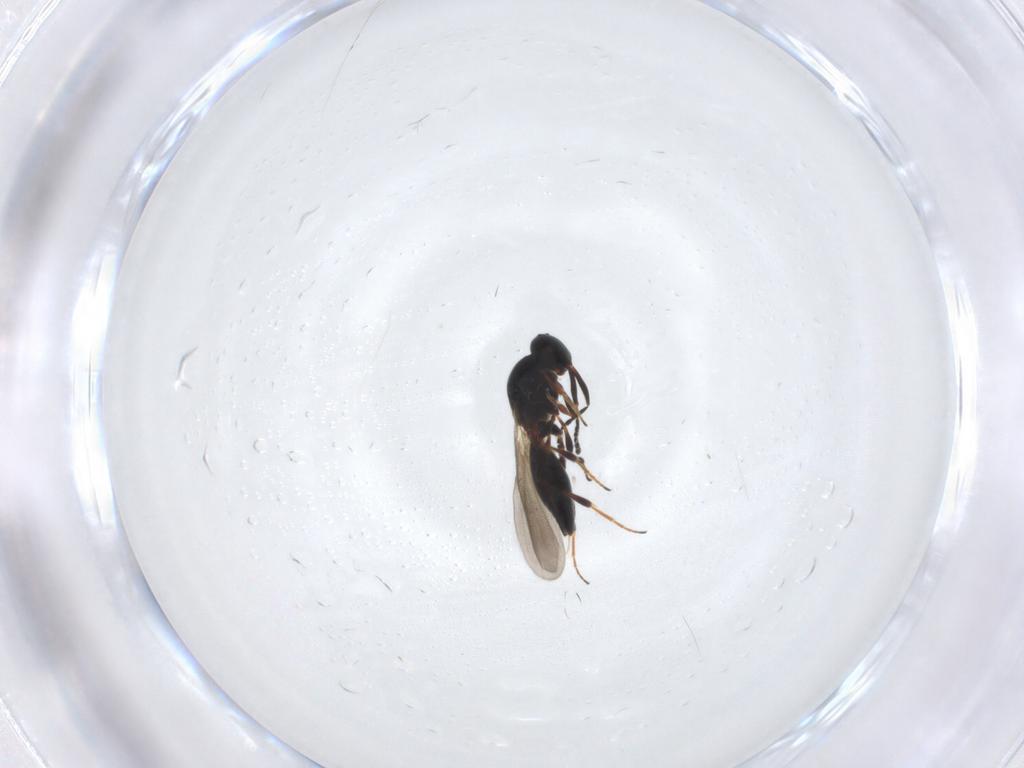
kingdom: Animalia
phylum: Arthropoda
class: Insecta
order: Hymenoptera
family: Platygastridae
